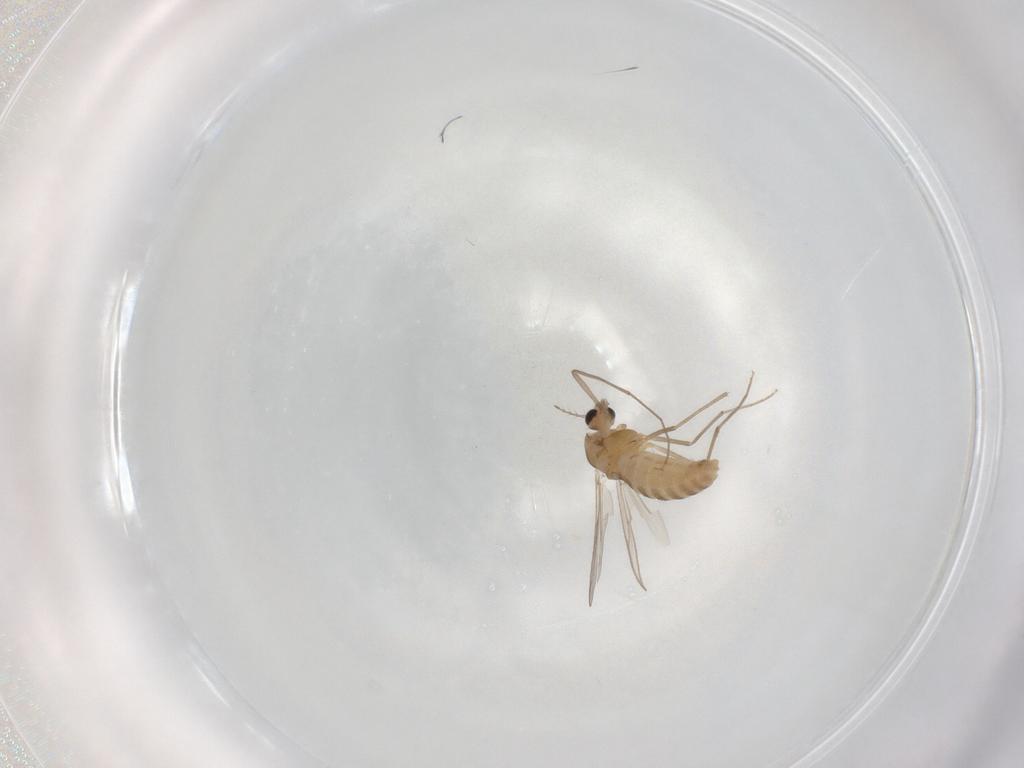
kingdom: Animalia
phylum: Arthropoda
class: Insecta
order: Diptera
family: Chironomidae
